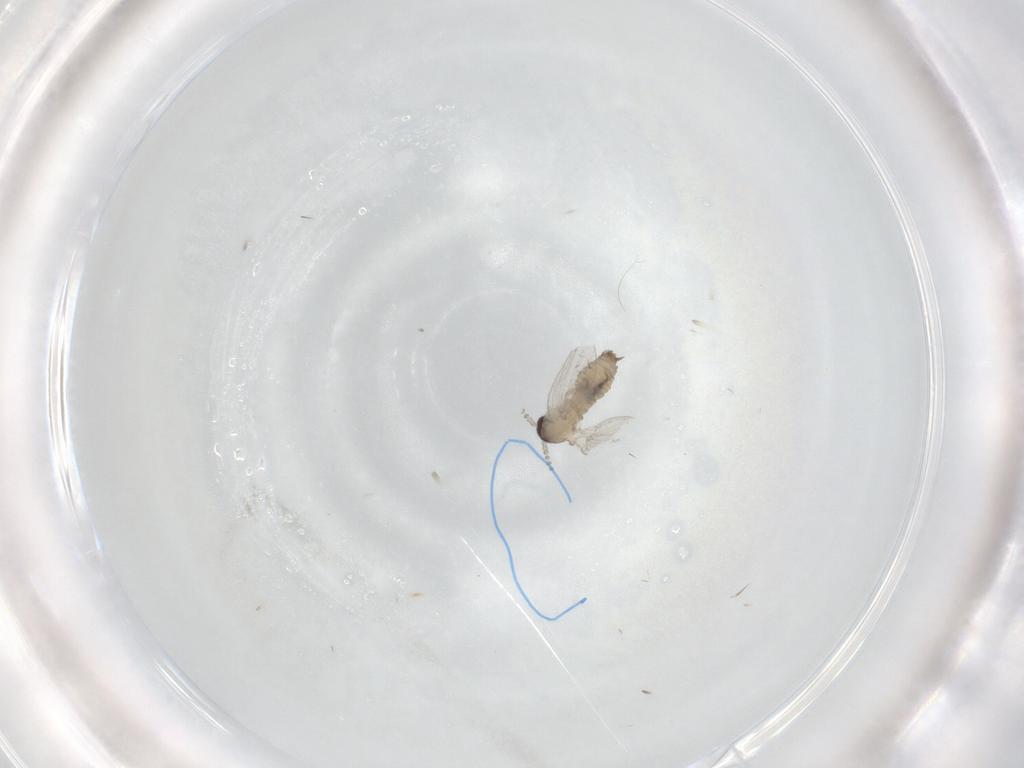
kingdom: Animalia
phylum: Arthropoda
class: Insecta
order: Diptera
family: Psychodidae
